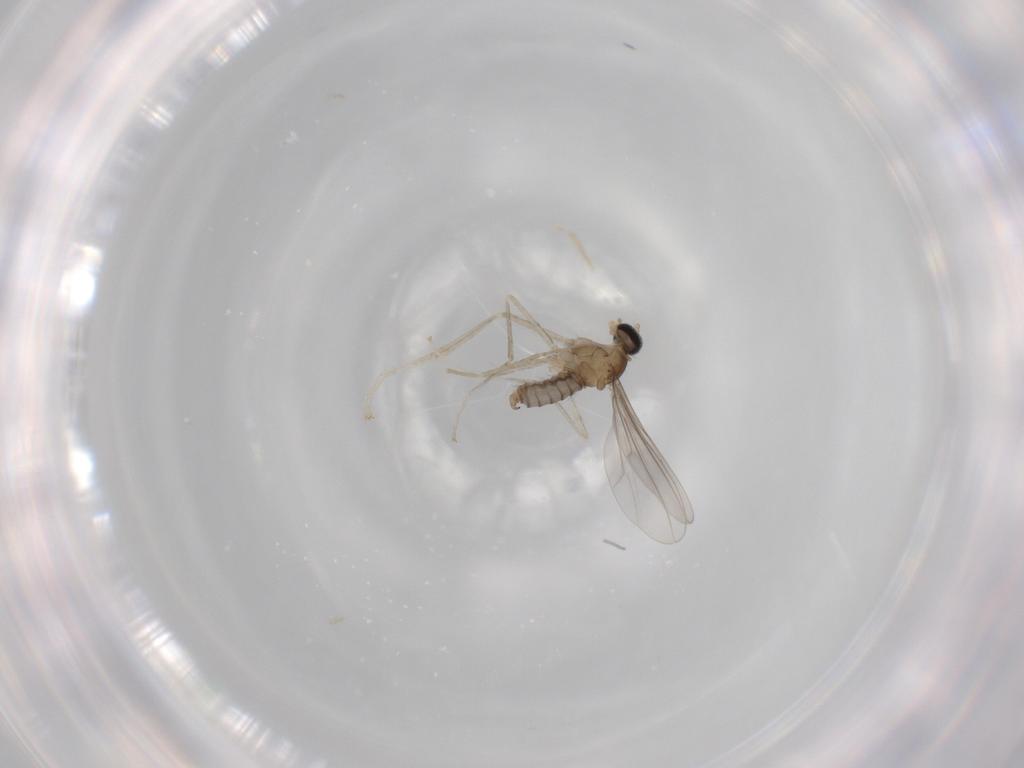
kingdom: Animalia
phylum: Arthropoda
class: Insecta
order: Diptera
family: Cecidomyiidae
